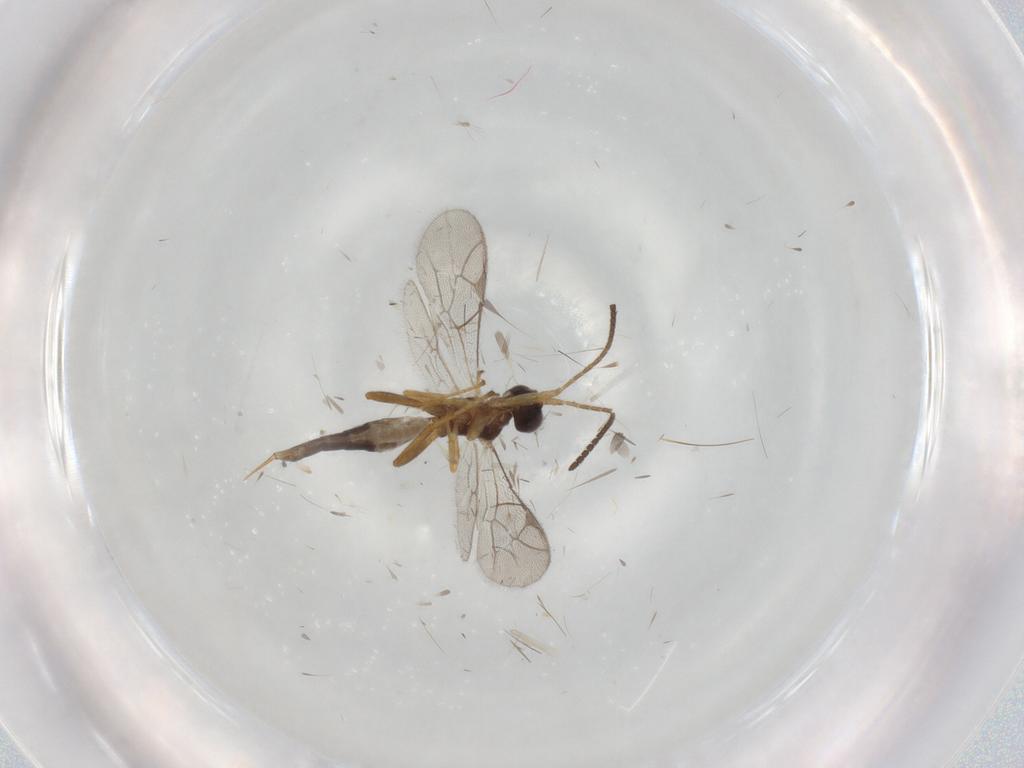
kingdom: Animalia
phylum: Arthropoda
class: Insecta
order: Hymenoptera
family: Ichneumonidae
